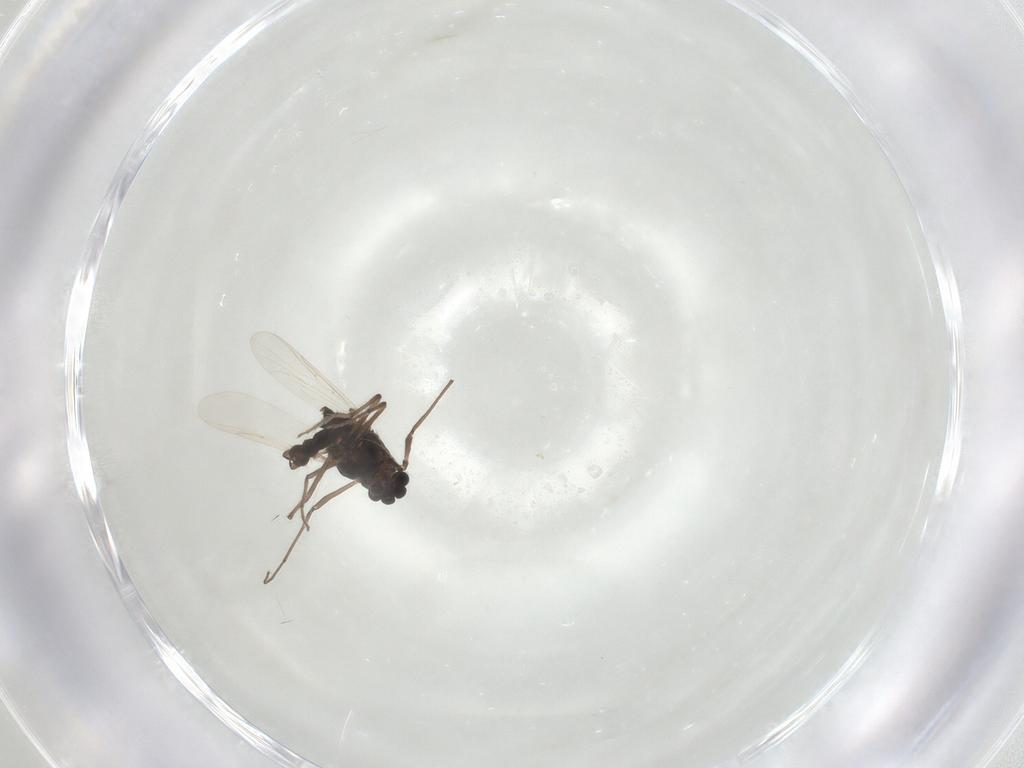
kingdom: Animalia
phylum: Arthropoda
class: Insecta
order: Diptera
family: Chironomidae
